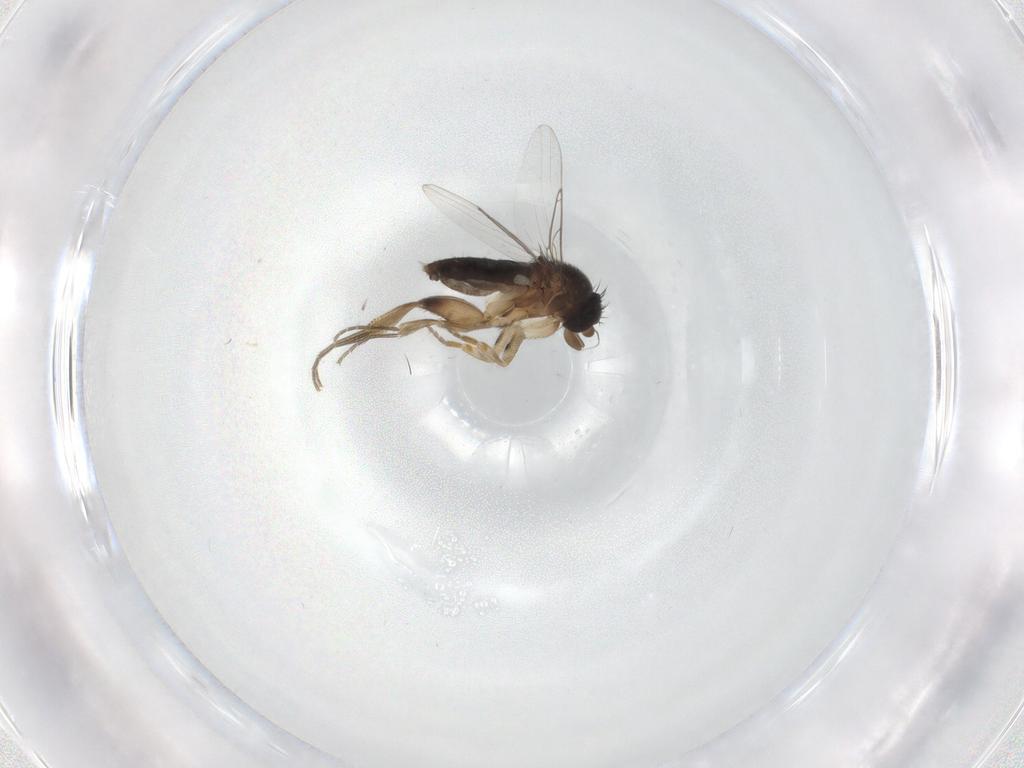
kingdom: Animalia
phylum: Arthropoda
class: Insecta
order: Diptera
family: Phoridae
